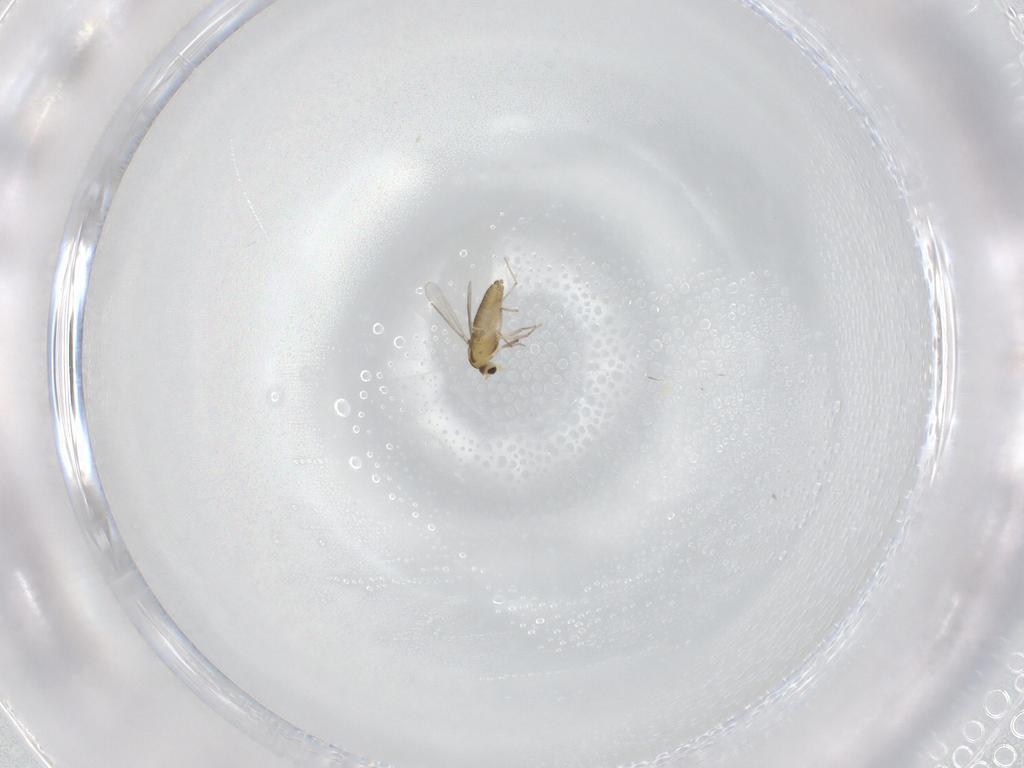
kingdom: Animalia
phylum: Arthropoda
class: Insecta
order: Diptera
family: Chironomidae
